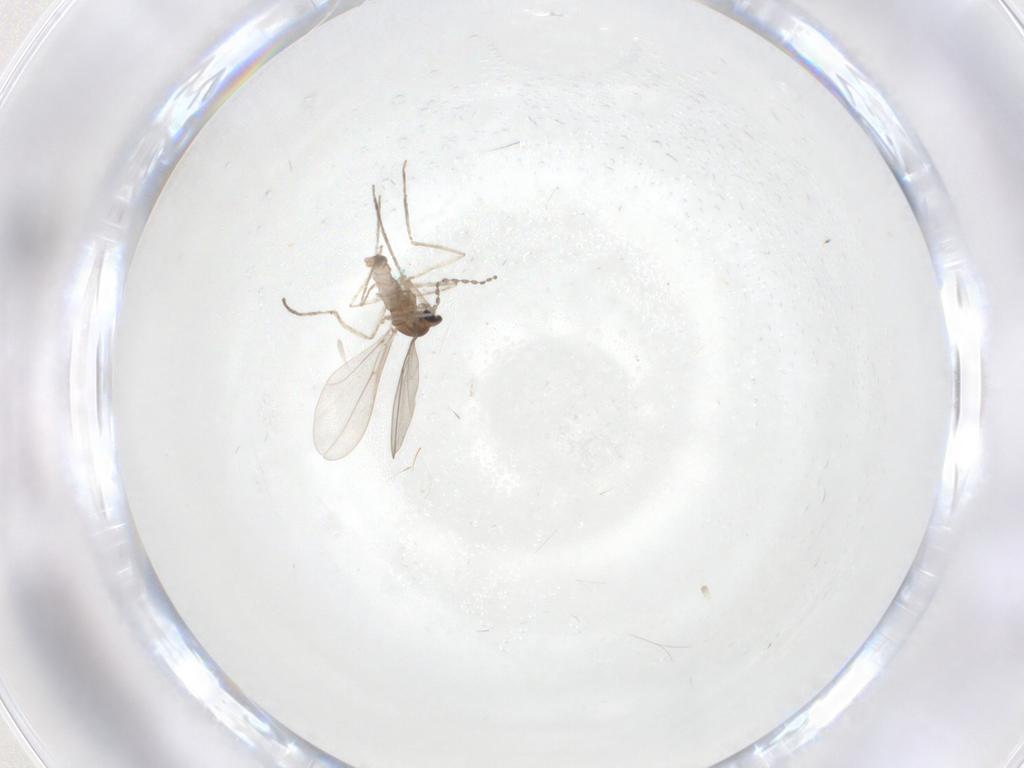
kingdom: Animalia
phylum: Arthropoda
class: Insecta
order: Diptera
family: Cecidomyiidae
